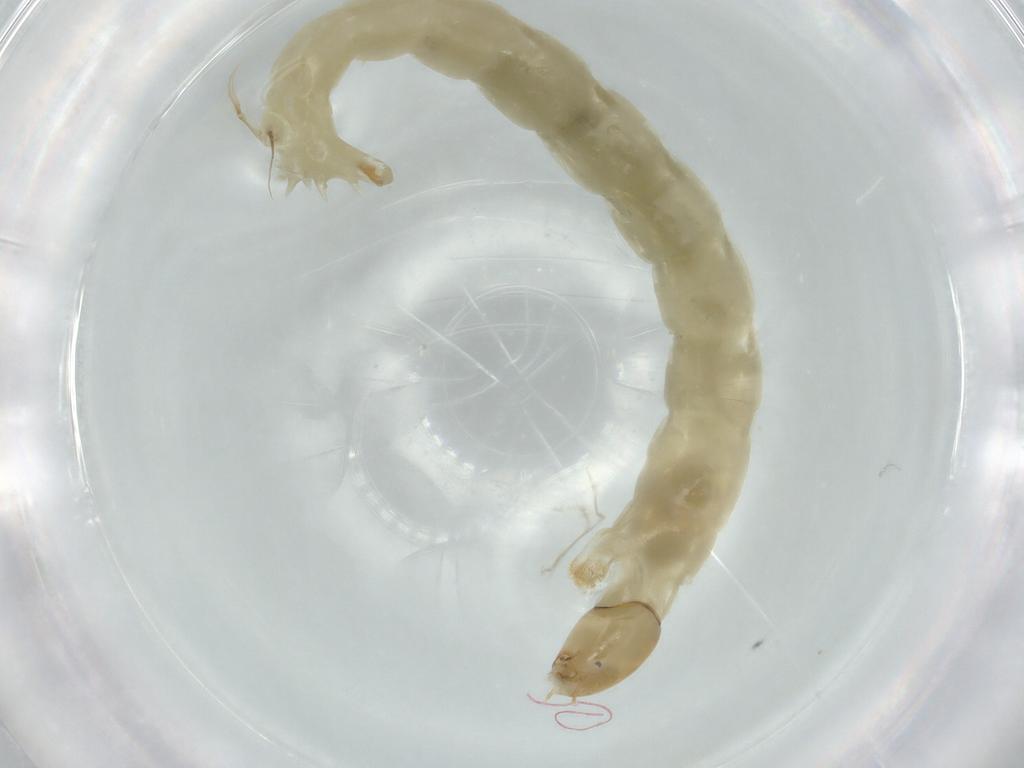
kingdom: Animalia
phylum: Arthropoda
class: Insecta
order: Diptera
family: Chironomidae
